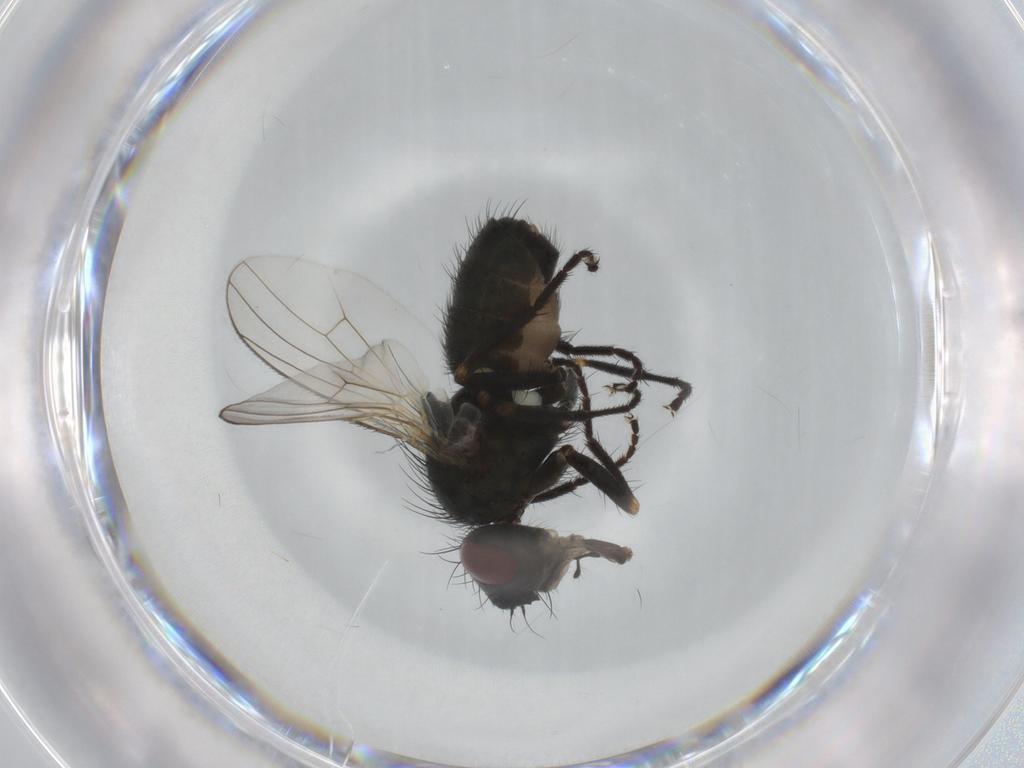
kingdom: Animalia
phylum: Arthropoda
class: Insecta
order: Diptera
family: Muscidae
